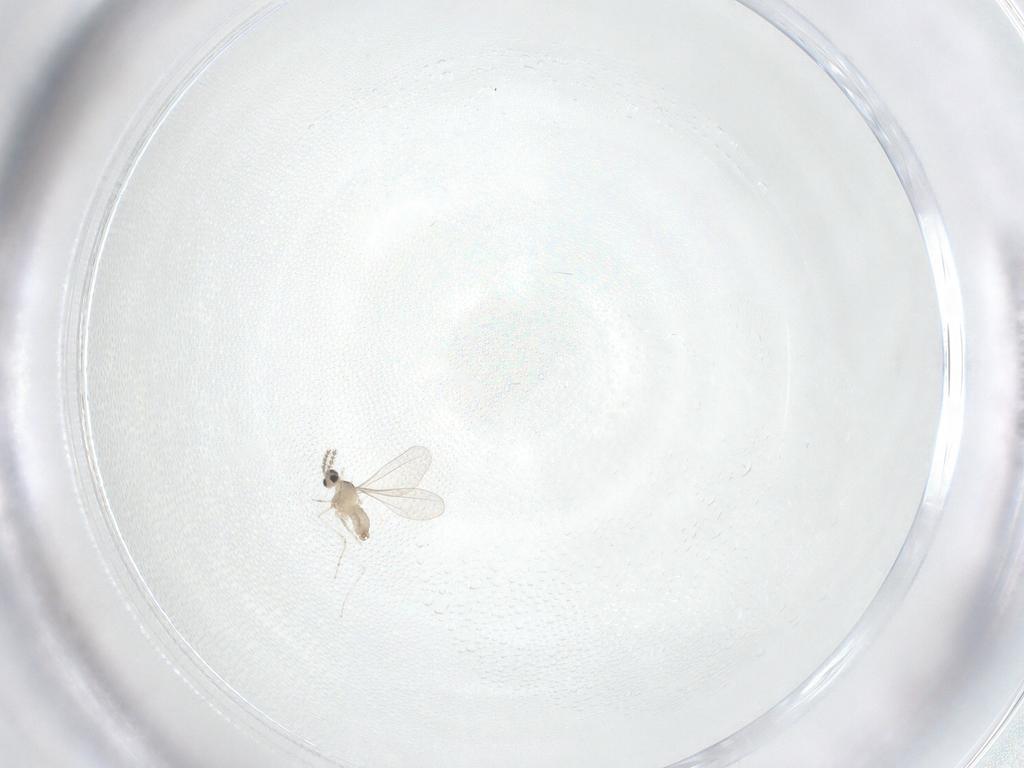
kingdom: Animalia
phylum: Arthropoda
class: Insecta
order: Diptera
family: Cecidomyiidae
